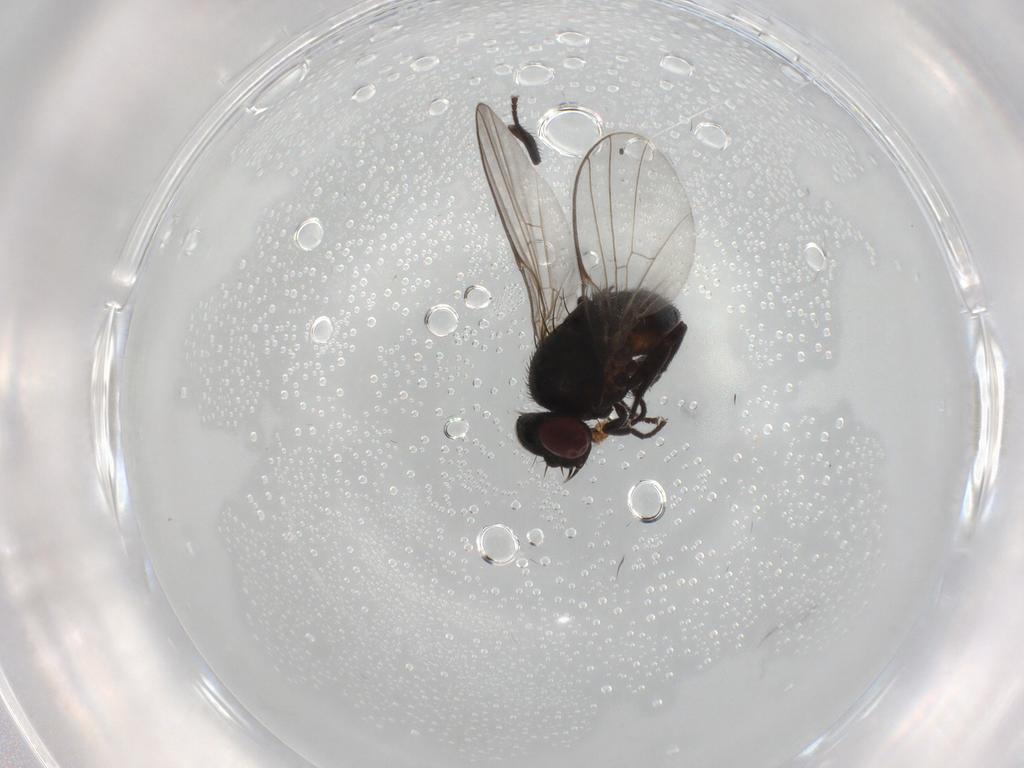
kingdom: Animalia
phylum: Arthropoda
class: Insecta
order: Diptera
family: Agromyzidae
